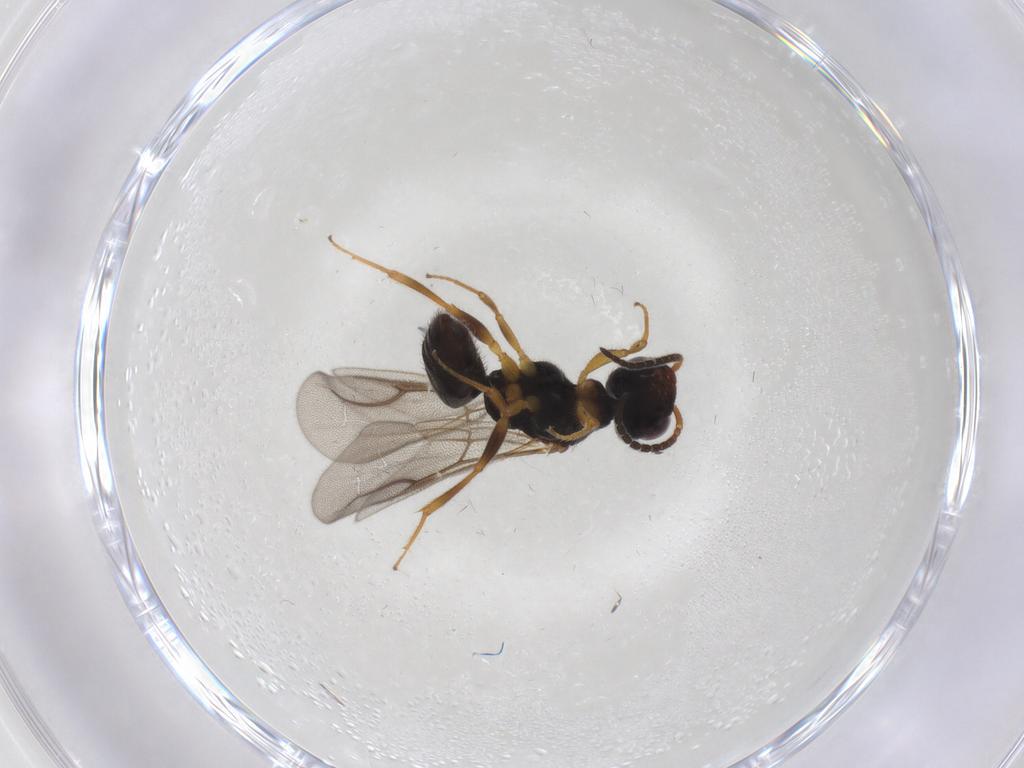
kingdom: Animalia
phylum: Arthropoda
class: Insecta
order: Hymenoptera
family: Bethylidae
